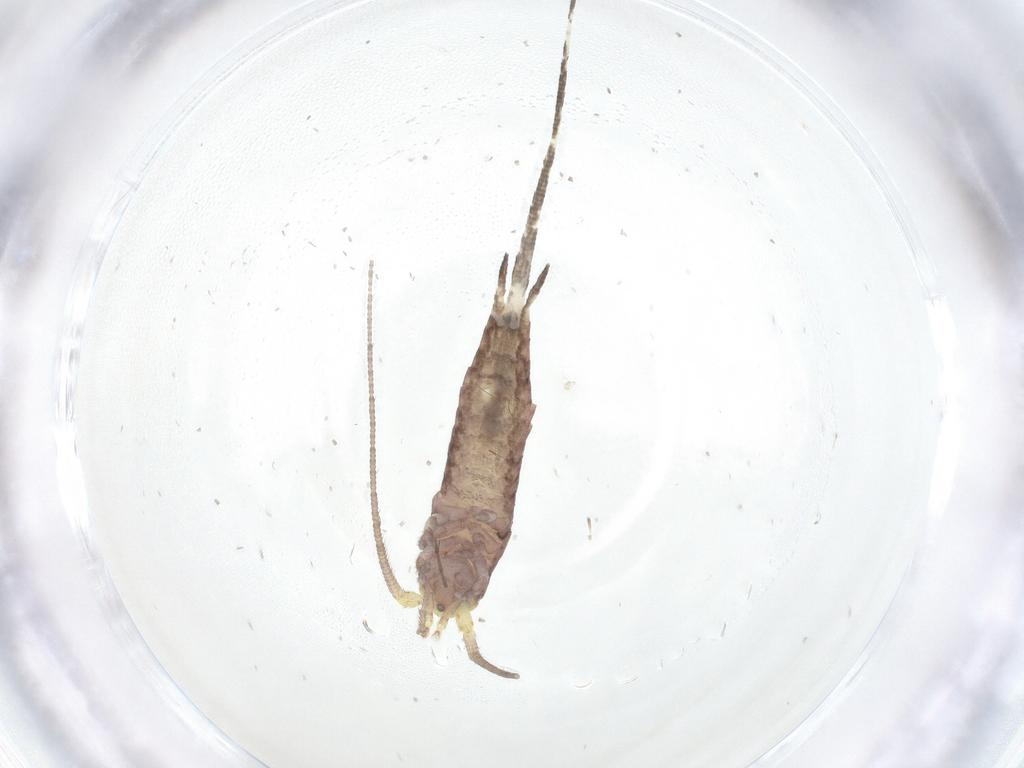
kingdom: Animalia
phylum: Arthropoda
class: Insecta
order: Archaeognatha
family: Machilidae
